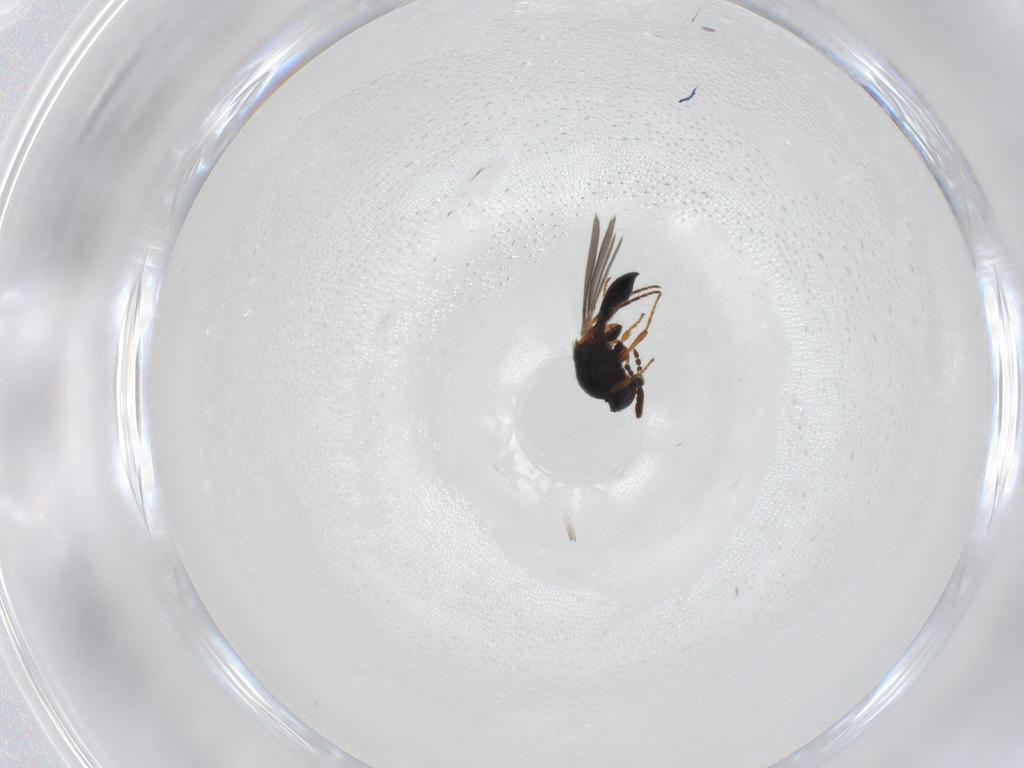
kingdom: Animalia
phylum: Arthropoda
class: Insecta
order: Hymenoptera
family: Platygastridae
